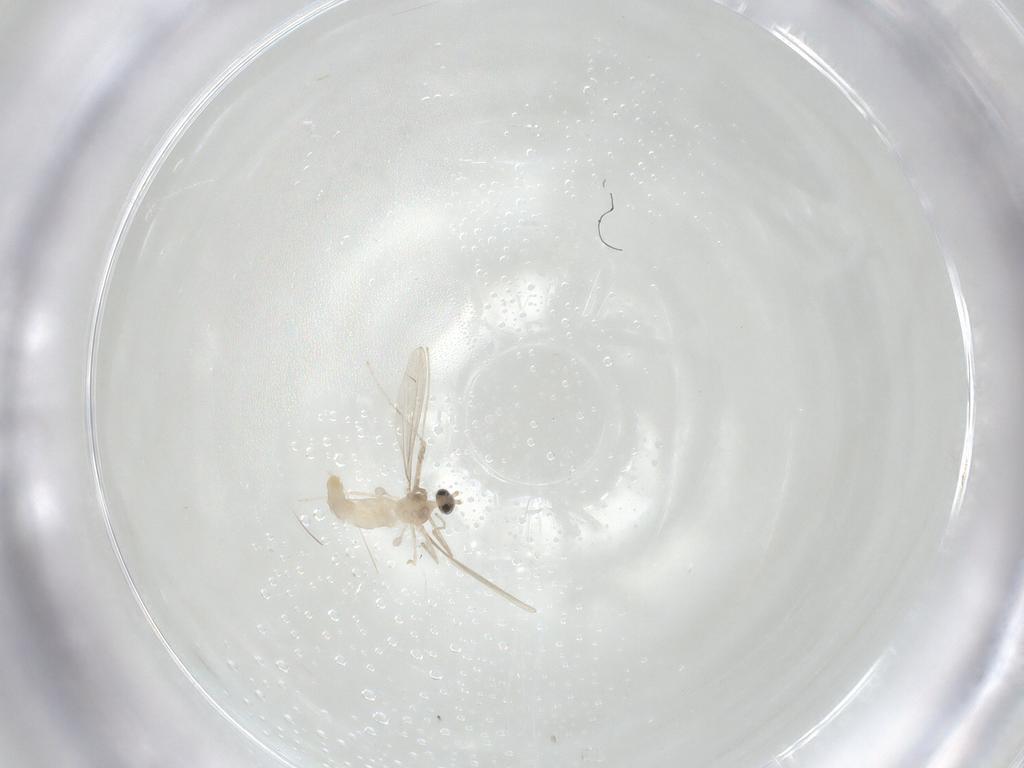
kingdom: Animalia
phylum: Arthropoda
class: Insecta
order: Diptera
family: Cecidomyiidae
